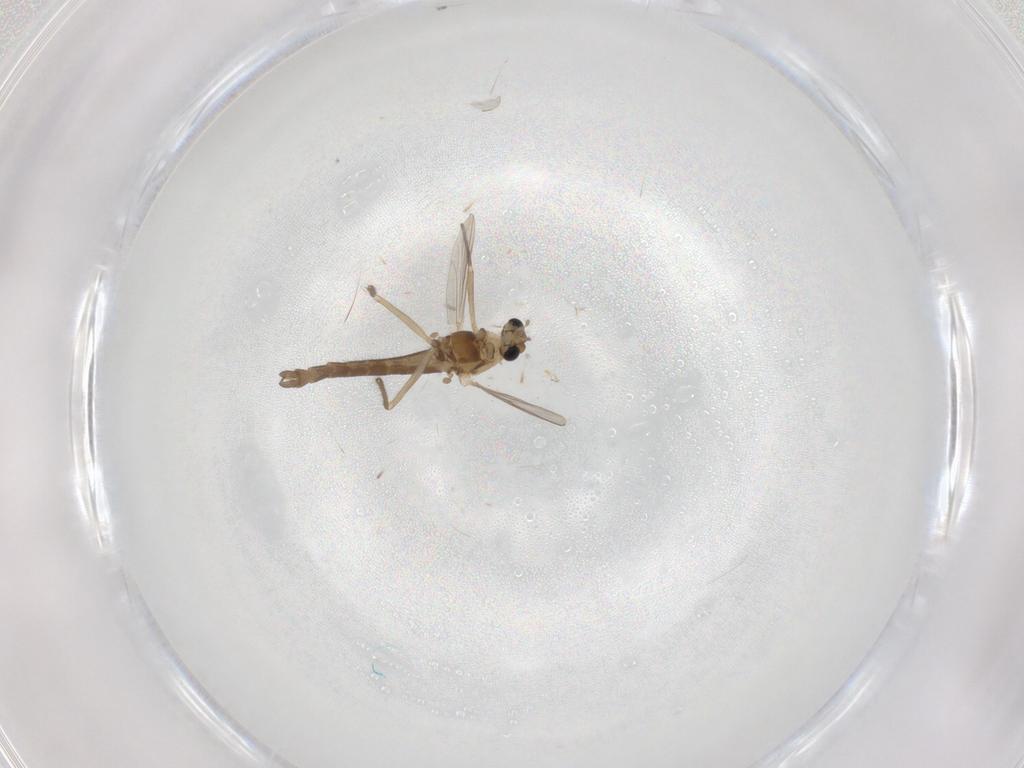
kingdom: Animalia
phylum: Arthropoda
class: Insecta
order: Diptera
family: Chironomidae
